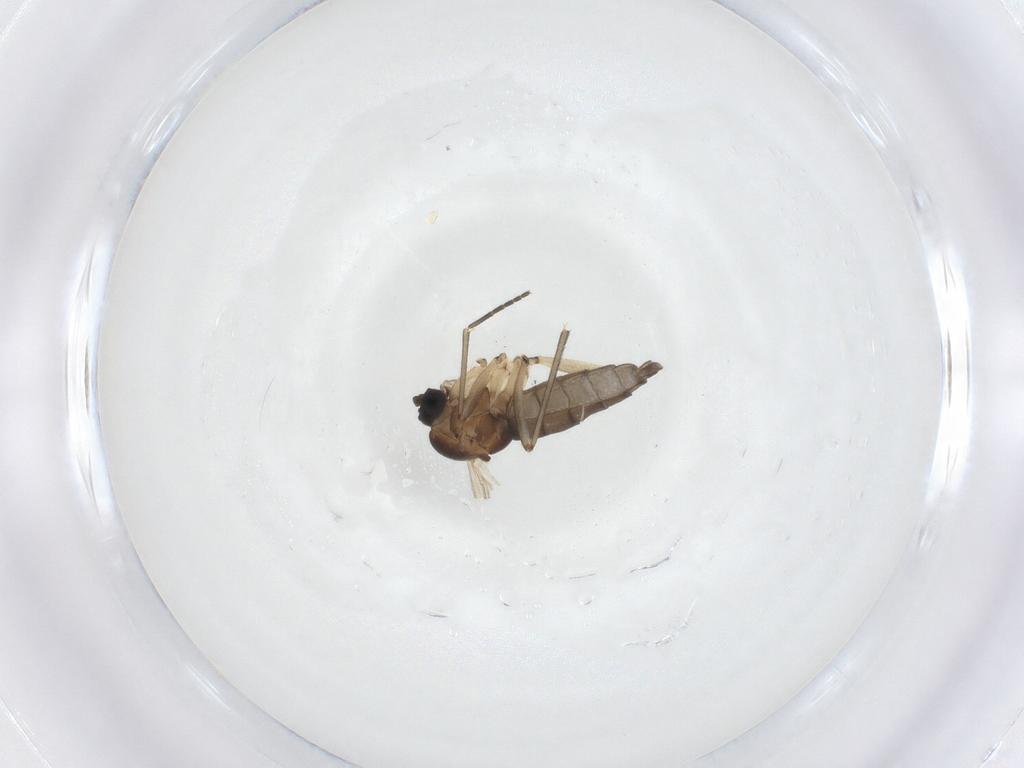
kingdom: Animalia
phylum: Arthropoda
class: Insecta
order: Diptera
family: Sciaridae
